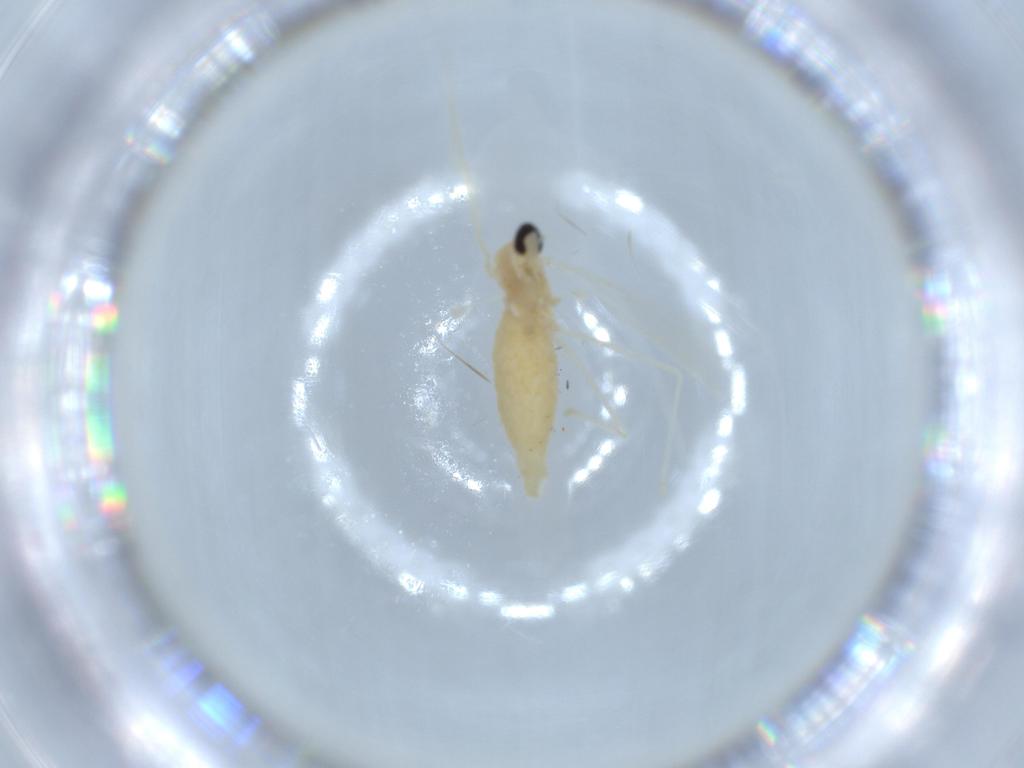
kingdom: Animalia
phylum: Arthropoda
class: Insecta
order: Diptera
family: Cecidomyiidae
